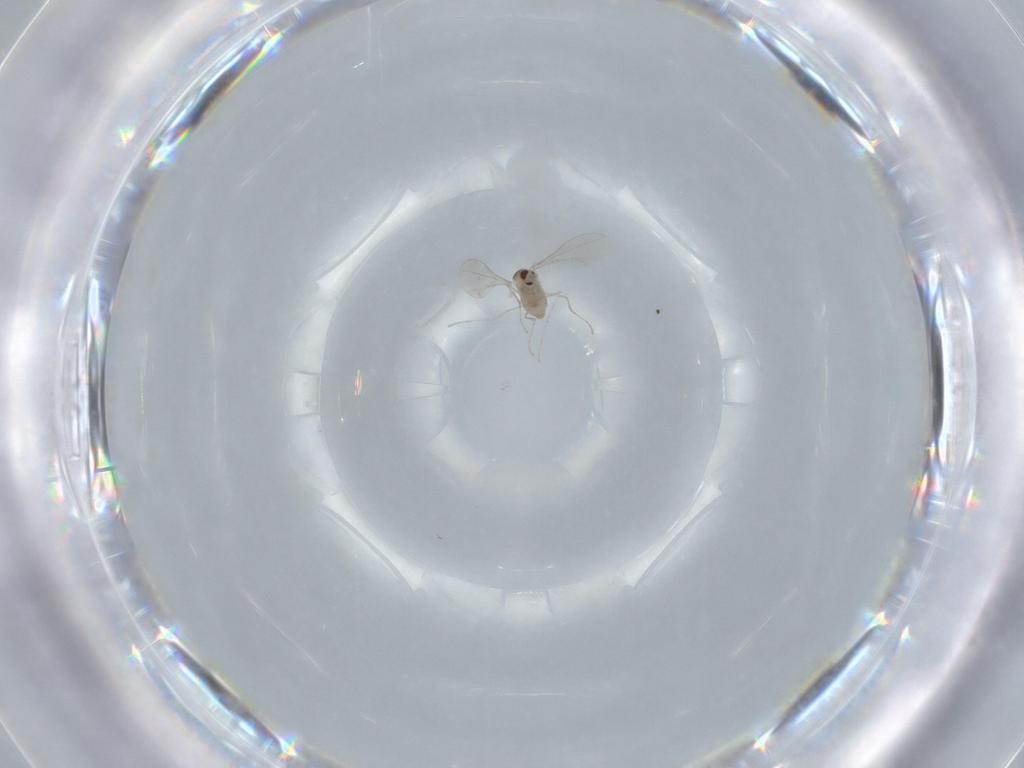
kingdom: Animalia
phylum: Arthropoda
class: Insecta
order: Diptera
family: Cecidomyiidae
